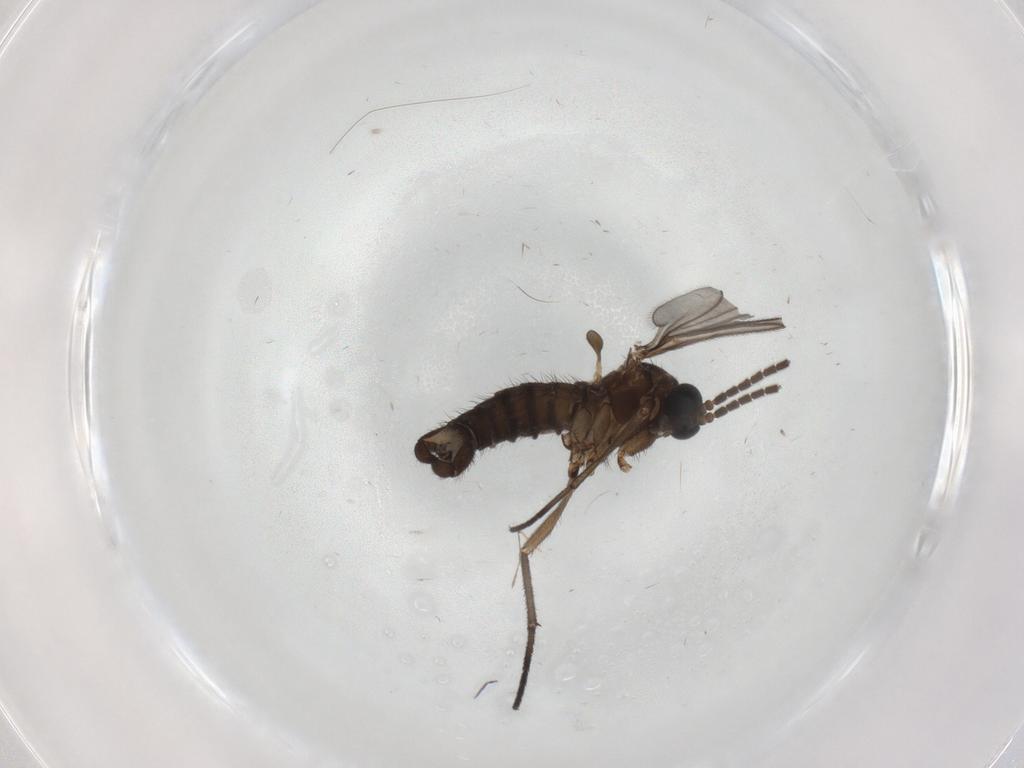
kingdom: Animalia
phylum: Arthropoda
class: Insecta
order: Diptera
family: Sciaridae
